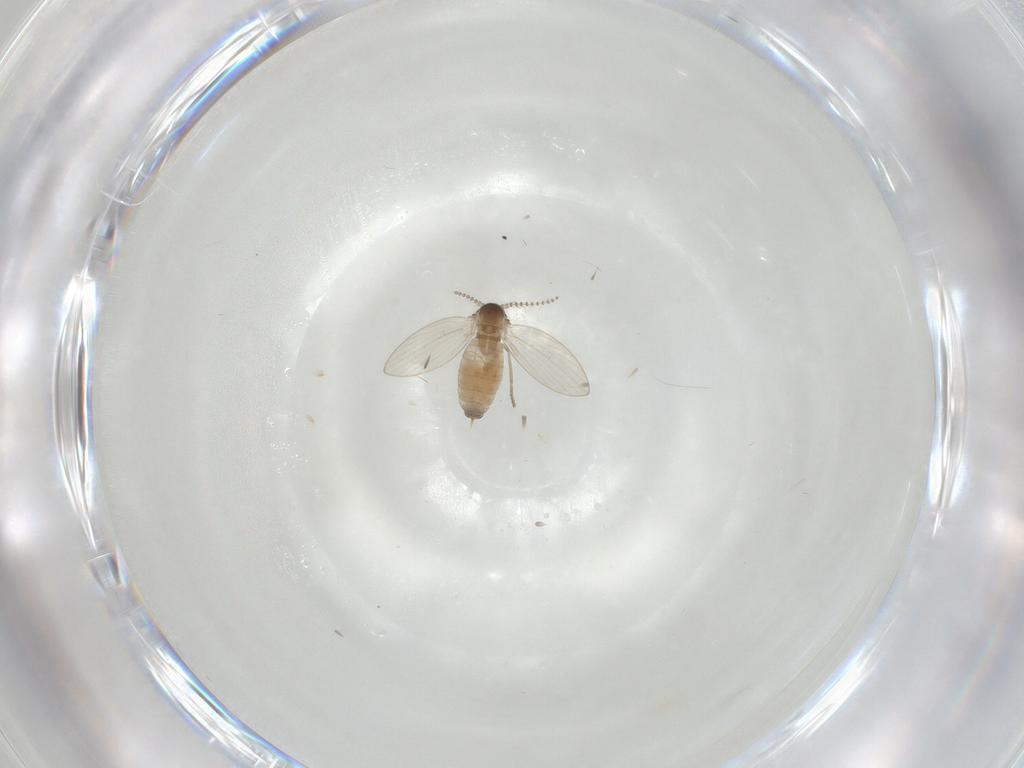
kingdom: Animalia
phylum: Arthropoda
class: Insecta
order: Diptera
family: Psychodidae
